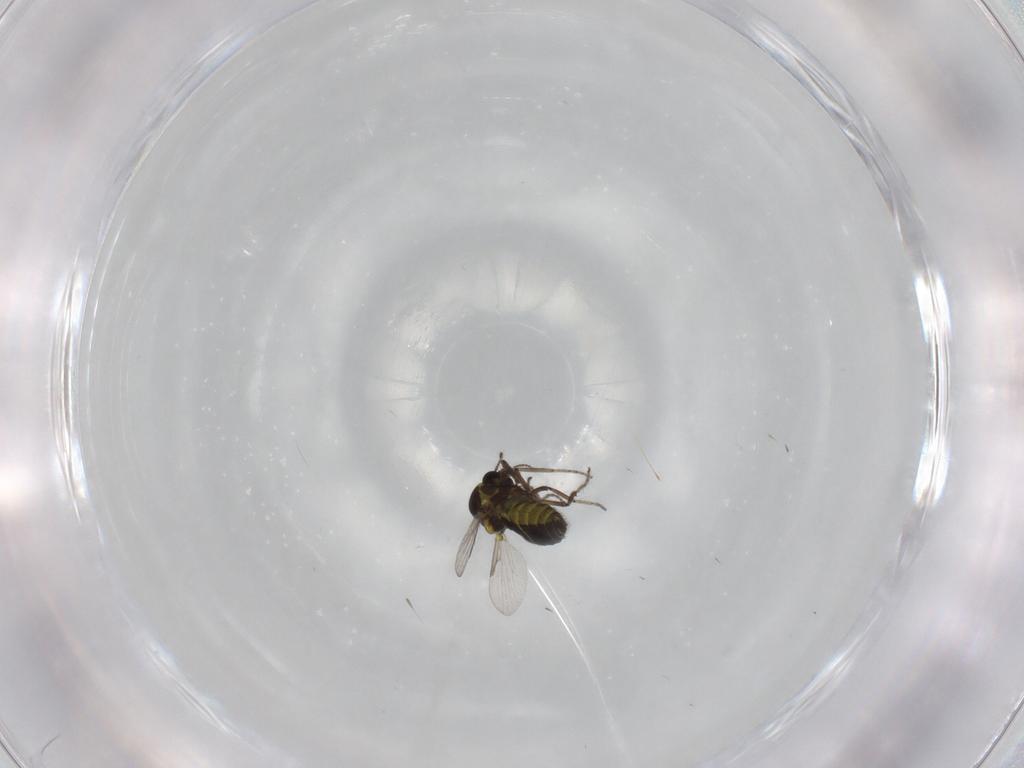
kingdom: Animalia
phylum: Arthropoda
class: Insecta
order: Diptera
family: Ceratopogonidae
